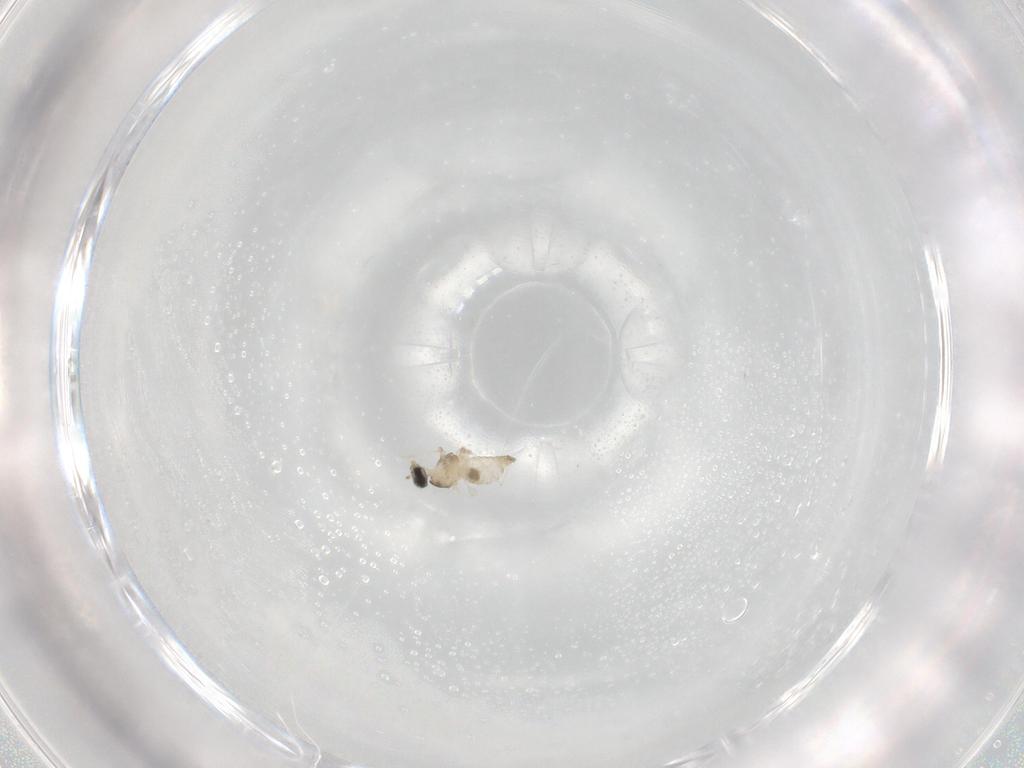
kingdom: Animalia
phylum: Arthropoda
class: Insecta
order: Diptera
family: Cecidomyiidae
